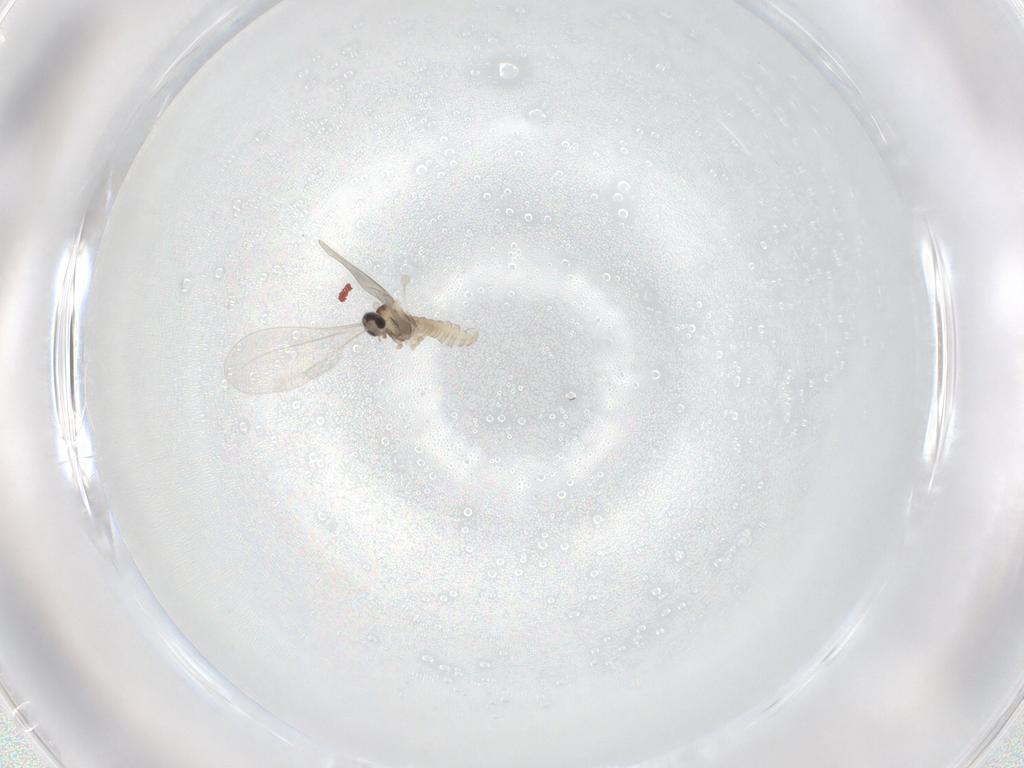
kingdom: Animalia
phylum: Arthropoda
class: Insecta
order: Diptera
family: Cecidomyiidae
